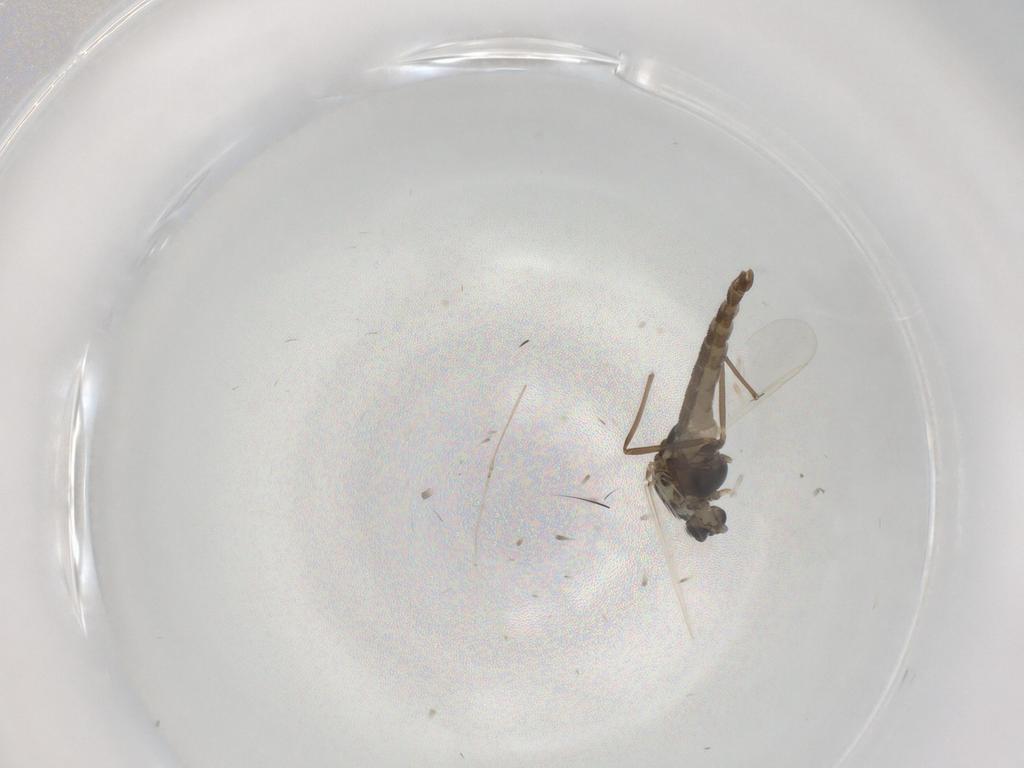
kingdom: Animalia
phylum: Arthropoda
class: Insecta
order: Diptera
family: Chironomidae
